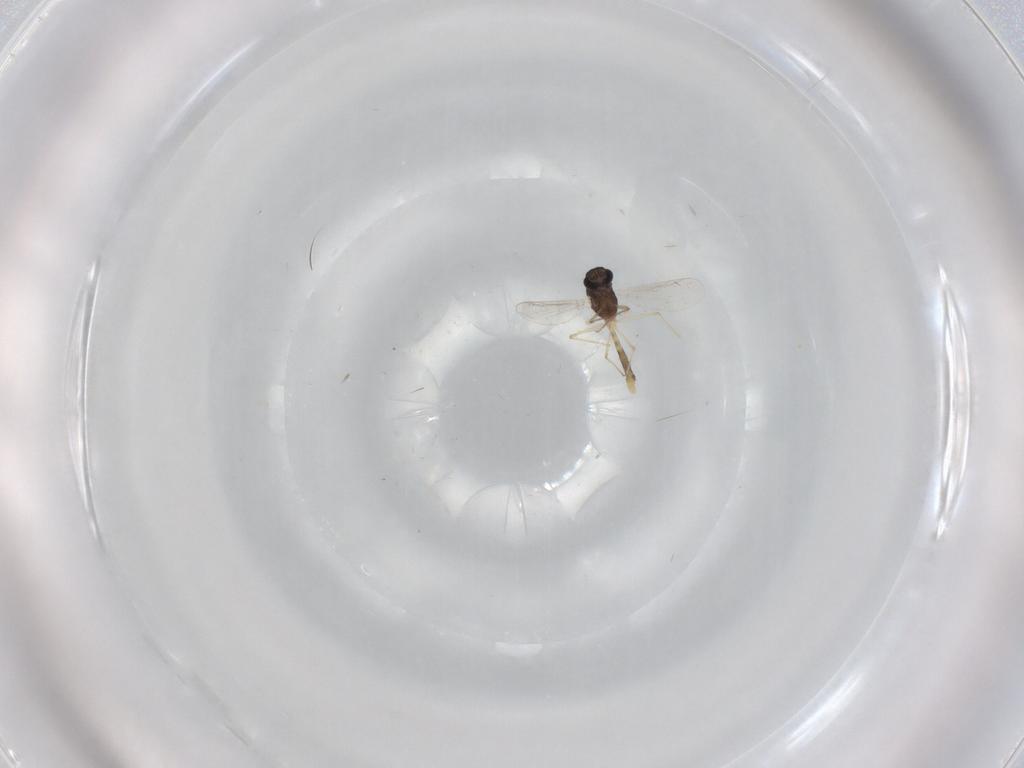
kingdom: Animalia
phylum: Arthropoda
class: Insecta
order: Diptera
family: Chironomidae
